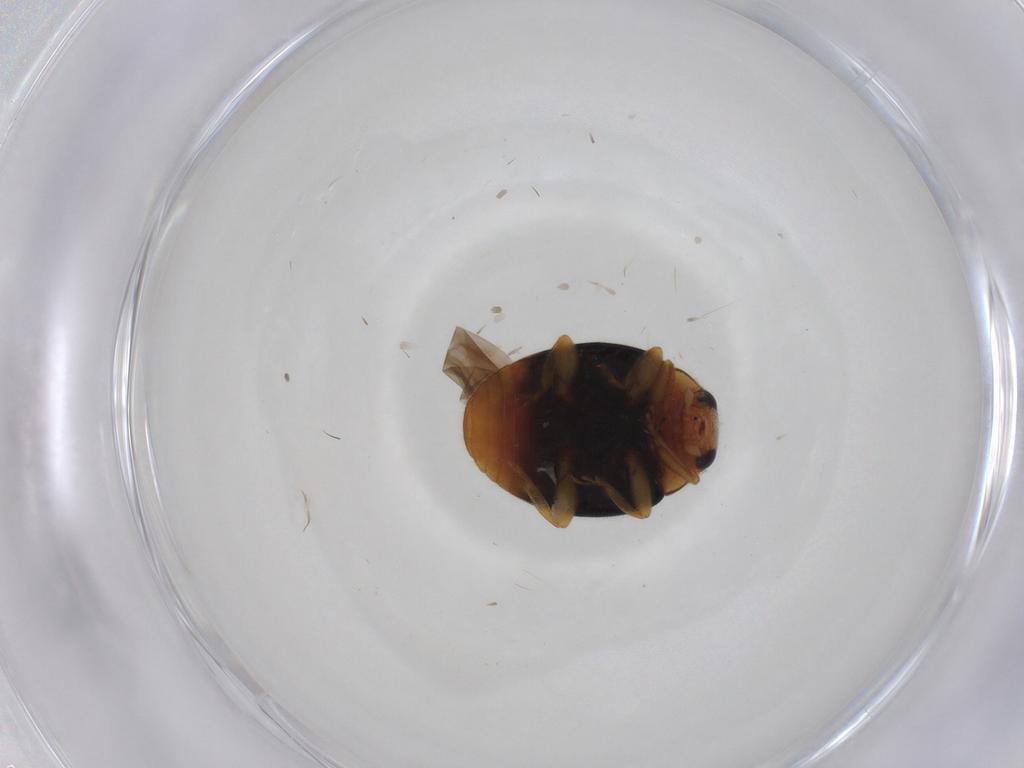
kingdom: Animalia
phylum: Arthropoda
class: Insecta
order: Coleoptera
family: Coccinellidae
